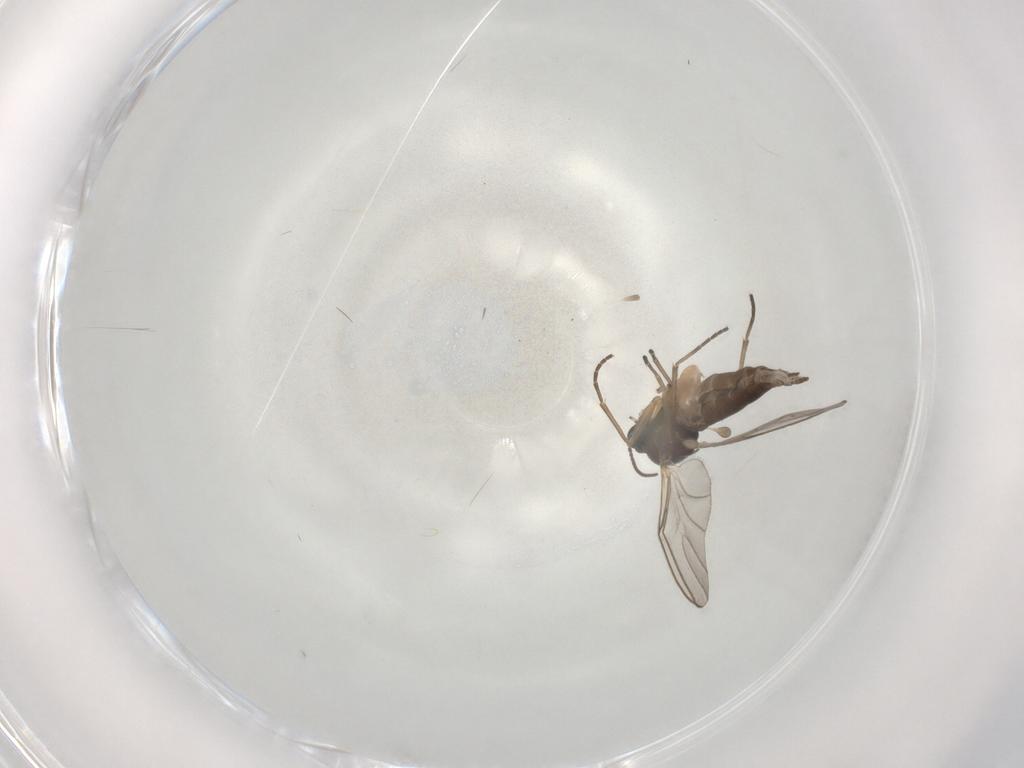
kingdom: Animalia
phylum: Arthropoda
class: Insecta
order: Diptera
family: Sciaridae
